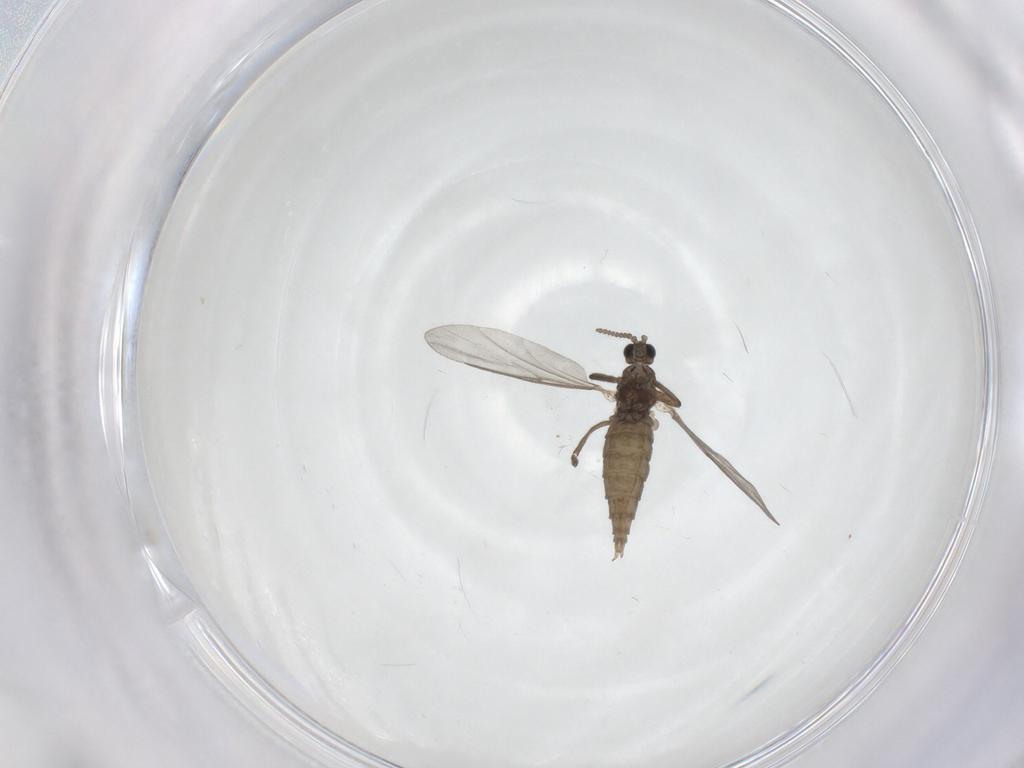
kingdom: Animalia
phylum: Arthropoda
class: Insecta
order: Diptera
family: Cecidomyiidae
